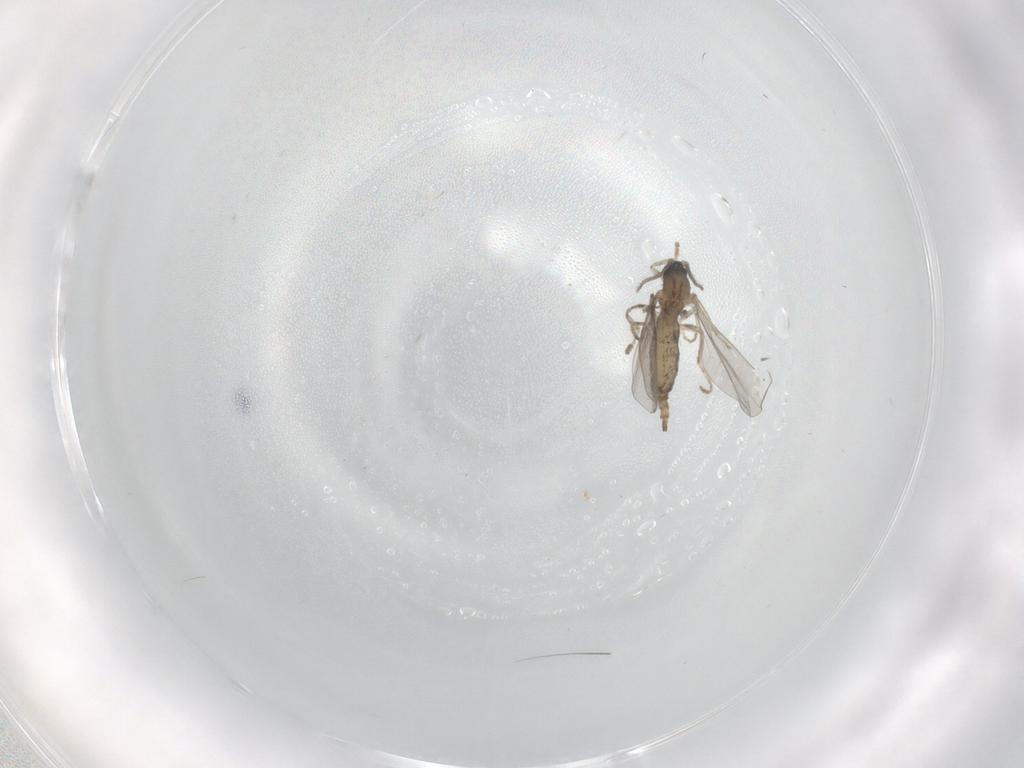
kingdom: Animalia
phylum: Arthropoda
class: Insecta
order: Diptera
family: Cecidomyiidae
